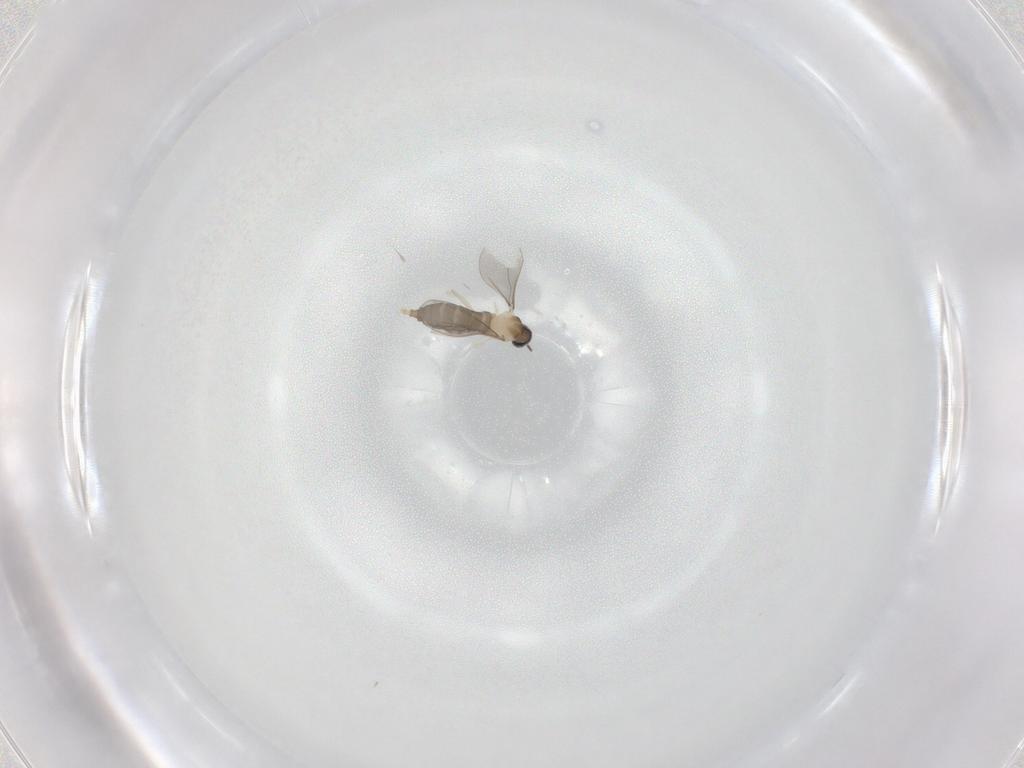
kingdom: Animalia
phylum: Arthropoda
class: Insecta
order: Diptera
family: Cecidomyiidae
